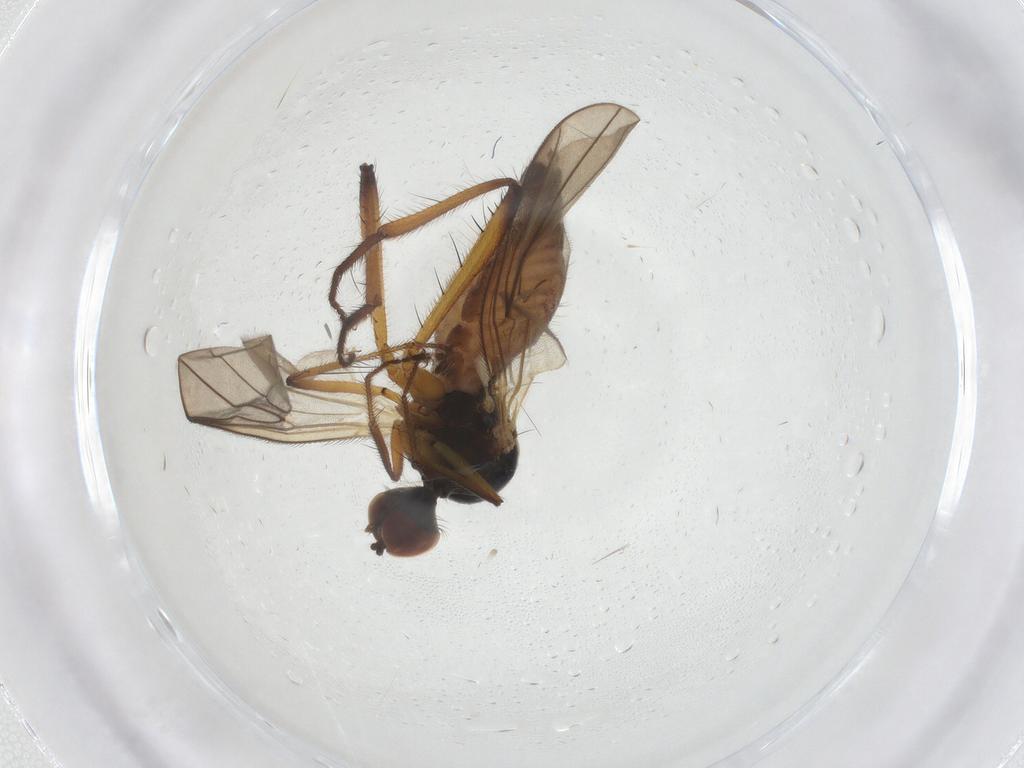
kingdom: Animalia
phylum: Arthropoda
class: Insecta
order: Diptera
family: Hybotidae
